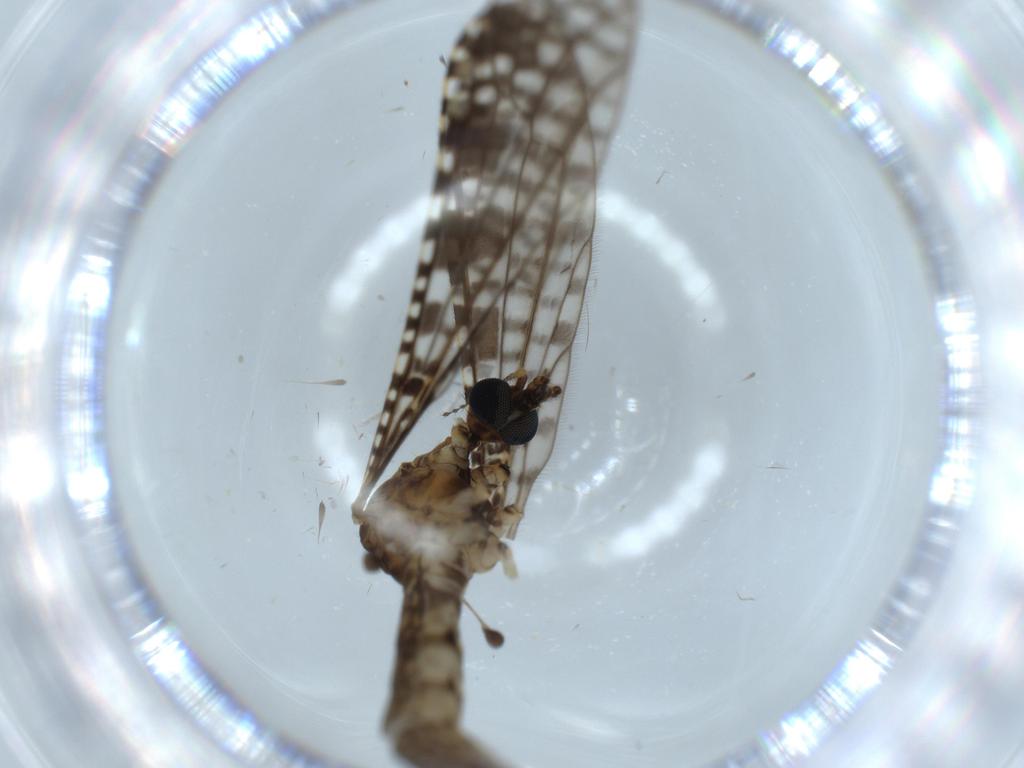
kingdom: Animalia
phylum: Arthropoda
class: Insecta
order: Diptera
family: Cecidomyiidae
